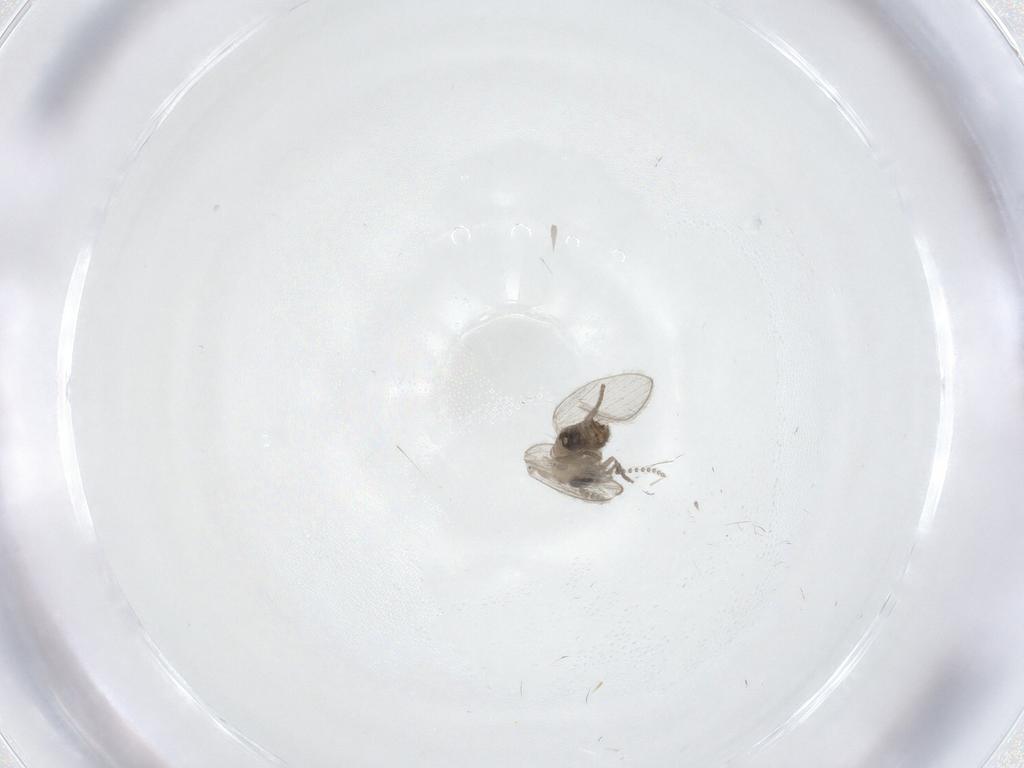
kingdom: Animalia
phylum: Arthropoda
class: Insecta
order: Diptera
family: Psychodidae
